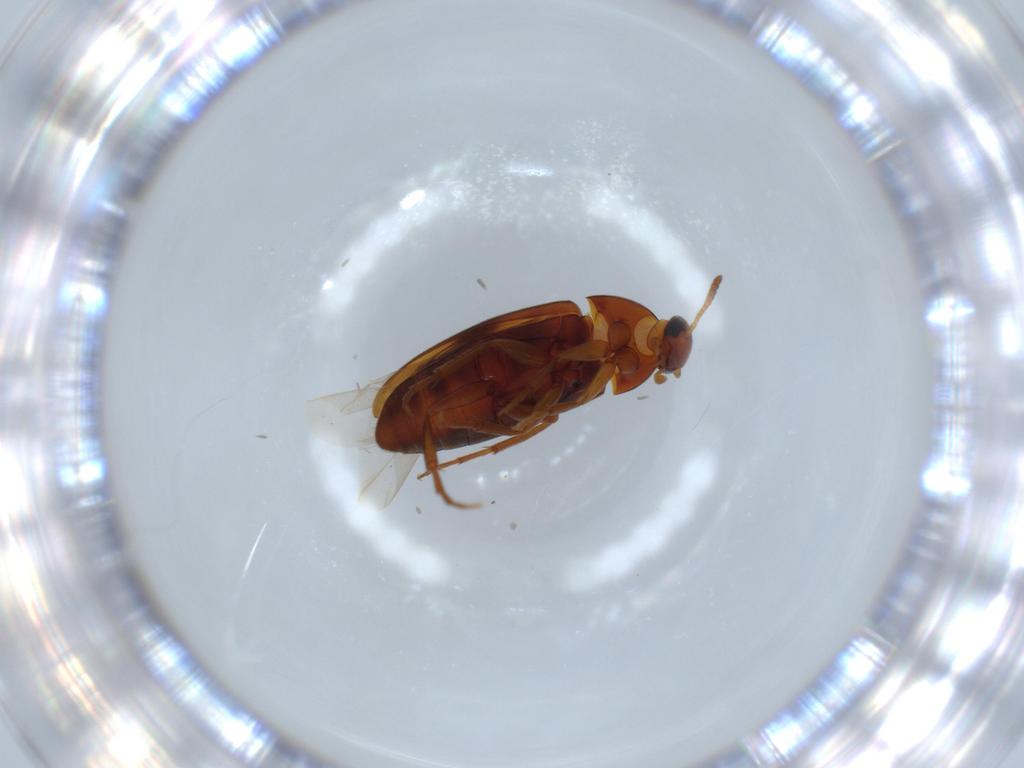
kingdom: Animalia
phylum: Arthropoda
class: Insecta
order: Coleoptera
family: Scraptiidae
